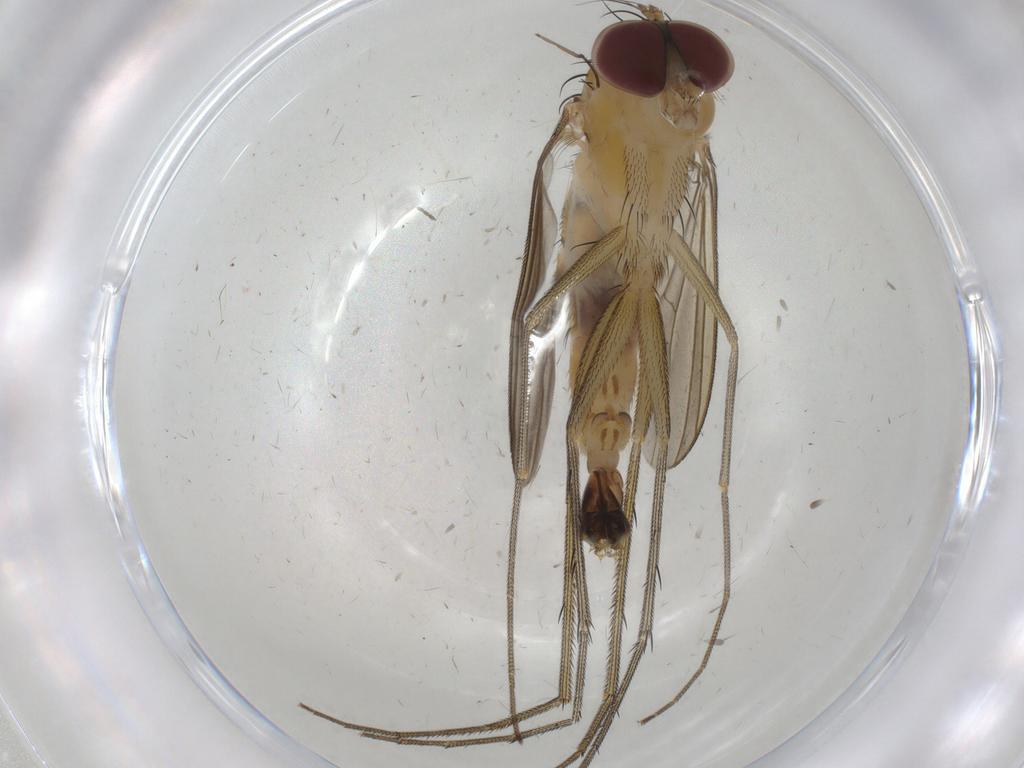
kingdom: Animalia
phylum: Arthropoda
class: Insecta
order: Diptera
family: Dolichopodidae
